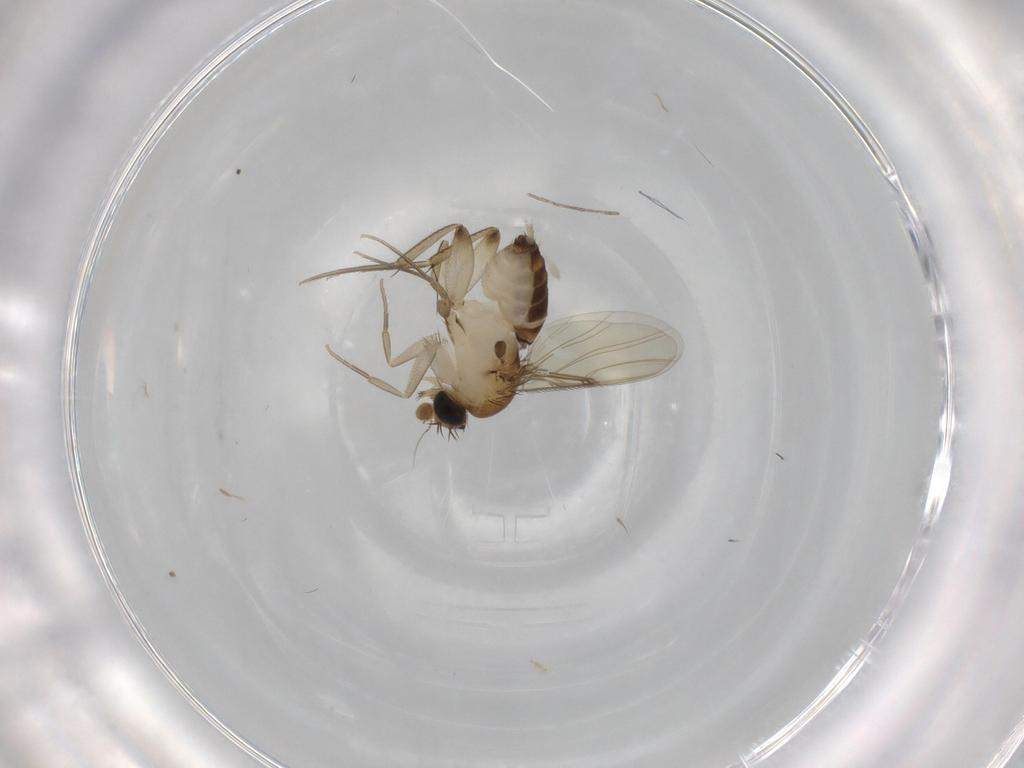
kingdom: Animalia
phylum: Arthropoda
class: Insecta
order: Diptera
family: Phoridae
